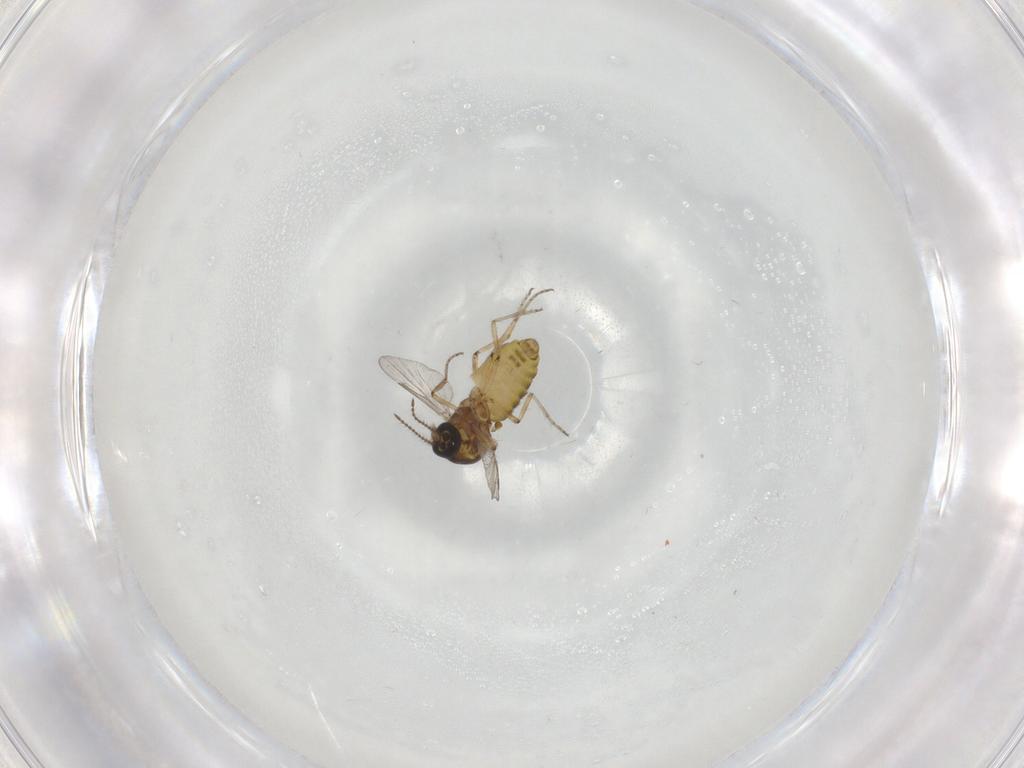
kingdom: Animalia
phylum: Arthropoda
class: Insecta
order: Diptera
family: Ceratopogonidae
